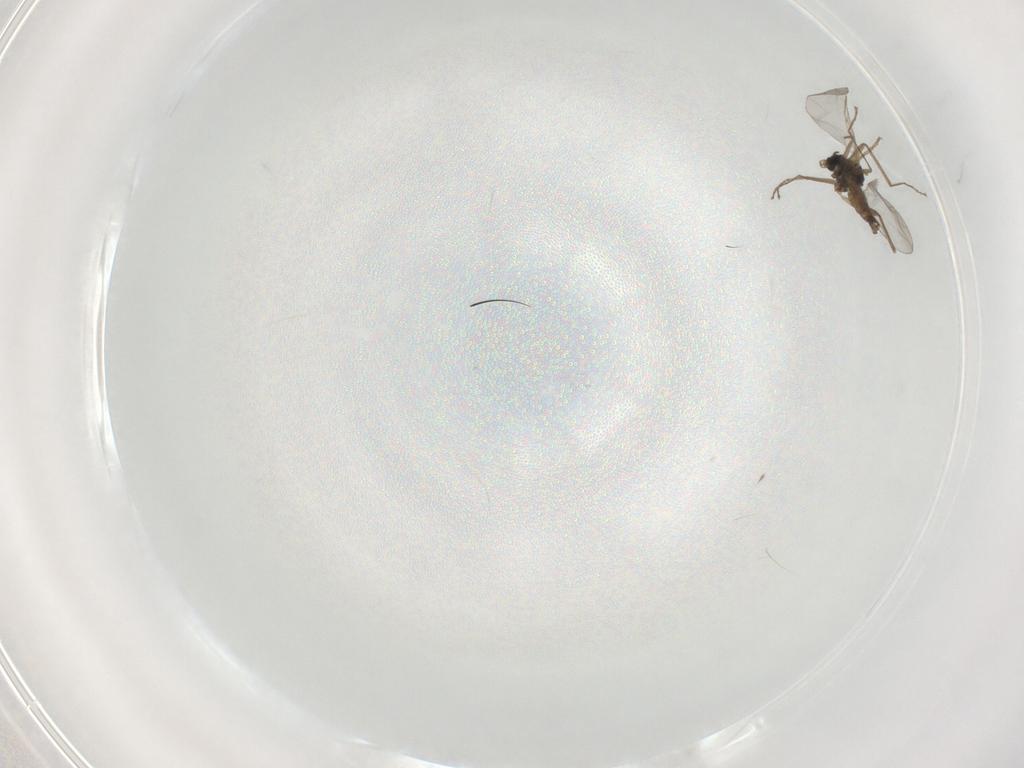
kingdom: Animalia
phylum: Arthropoda
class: Insecta
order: Diptera
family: Cecidomyiidae
